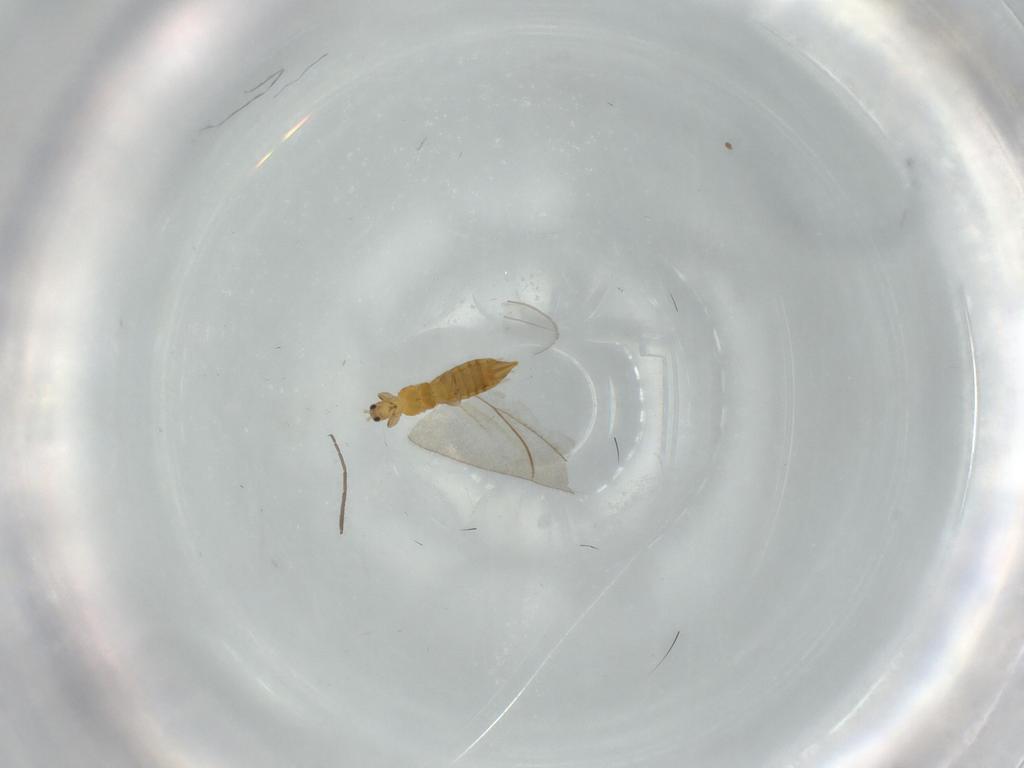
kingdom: Animalia
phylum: Arthropoda
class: Insecta
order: Thysanoptera
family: Thripidae
